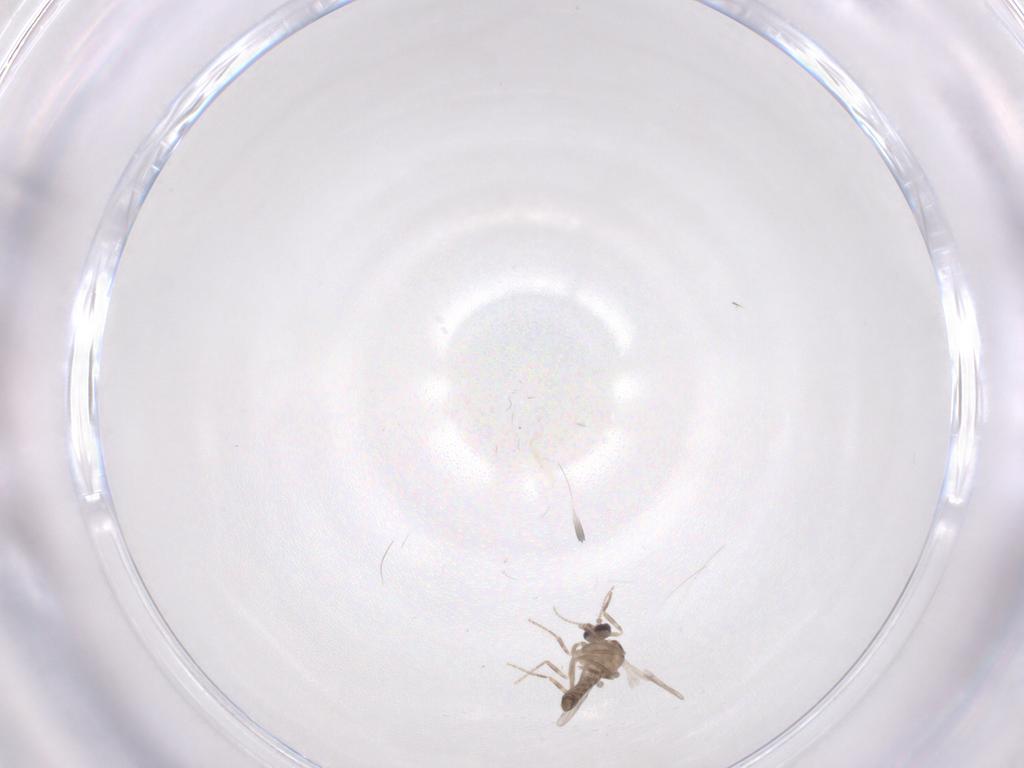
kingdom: Animalia
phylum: Arthropoda
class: Insecta
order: Diptera
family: Ceratopogonidae
